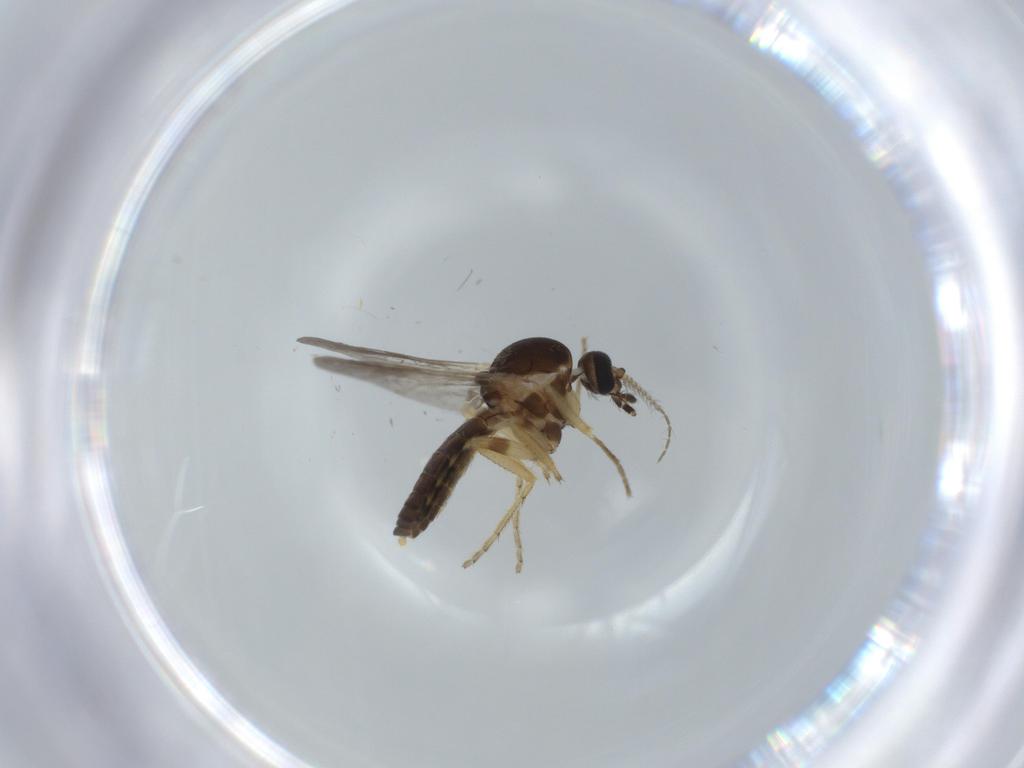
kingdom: Animalia
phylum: Arthropoda
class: Insecta
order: Diptera
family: Ceratopogonidae
